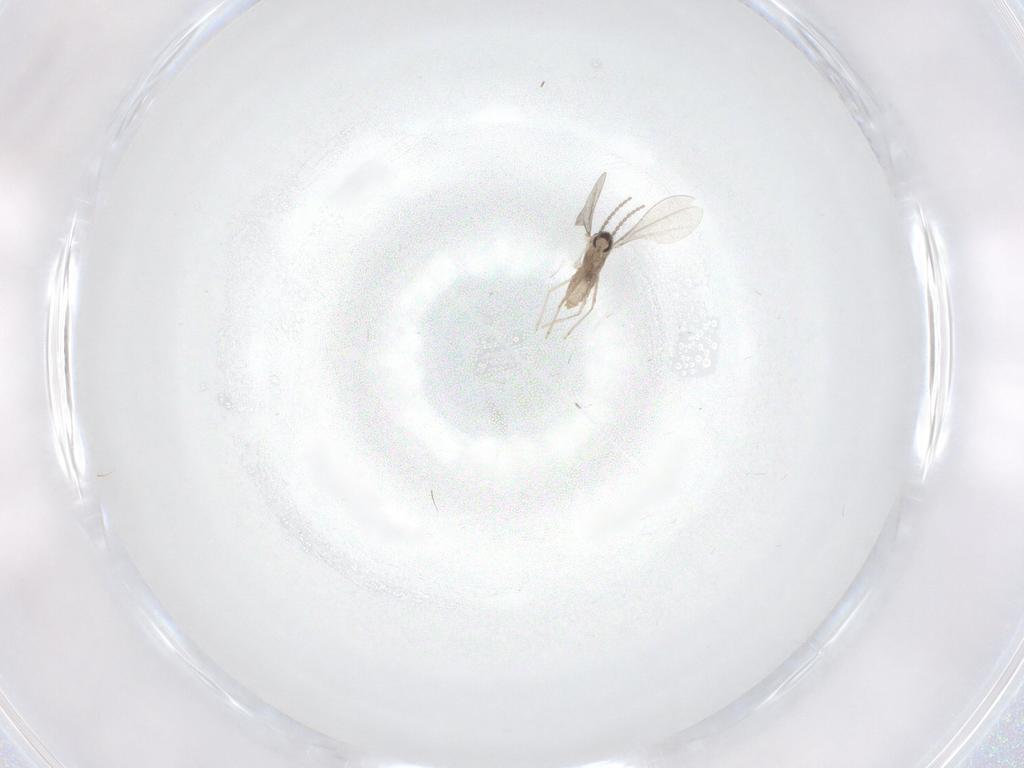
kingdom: Animalia
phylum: Arthropoda
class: Insecta
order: Diptera
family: Cecidomyiidae
